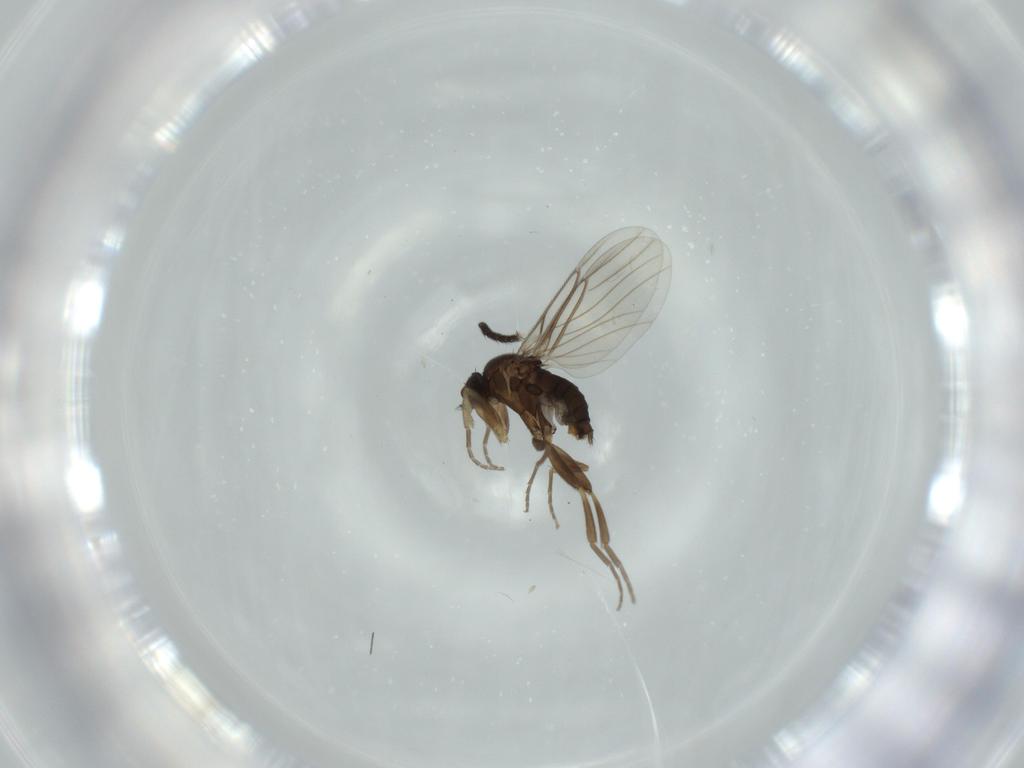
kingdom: Animalia
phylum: Arthropoda
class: Insecta
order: Diptera
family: Phoridae
